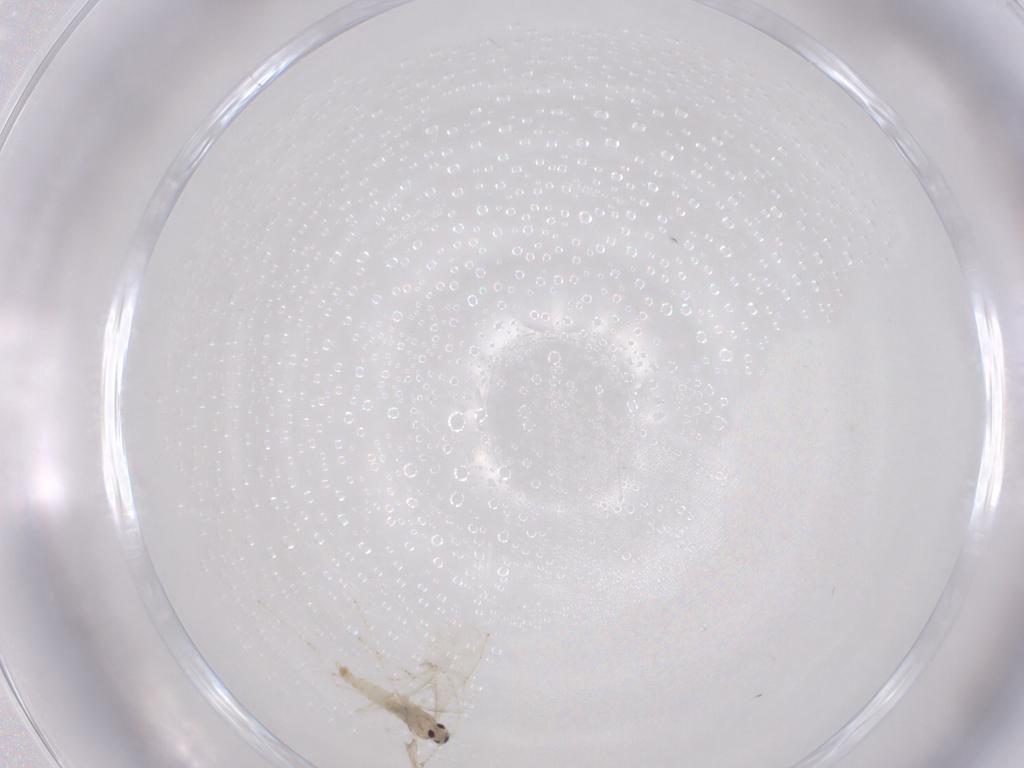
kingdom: Animalia
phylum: Arthropoda
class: Insecta
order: Diptera
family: Cecidomyiidae
